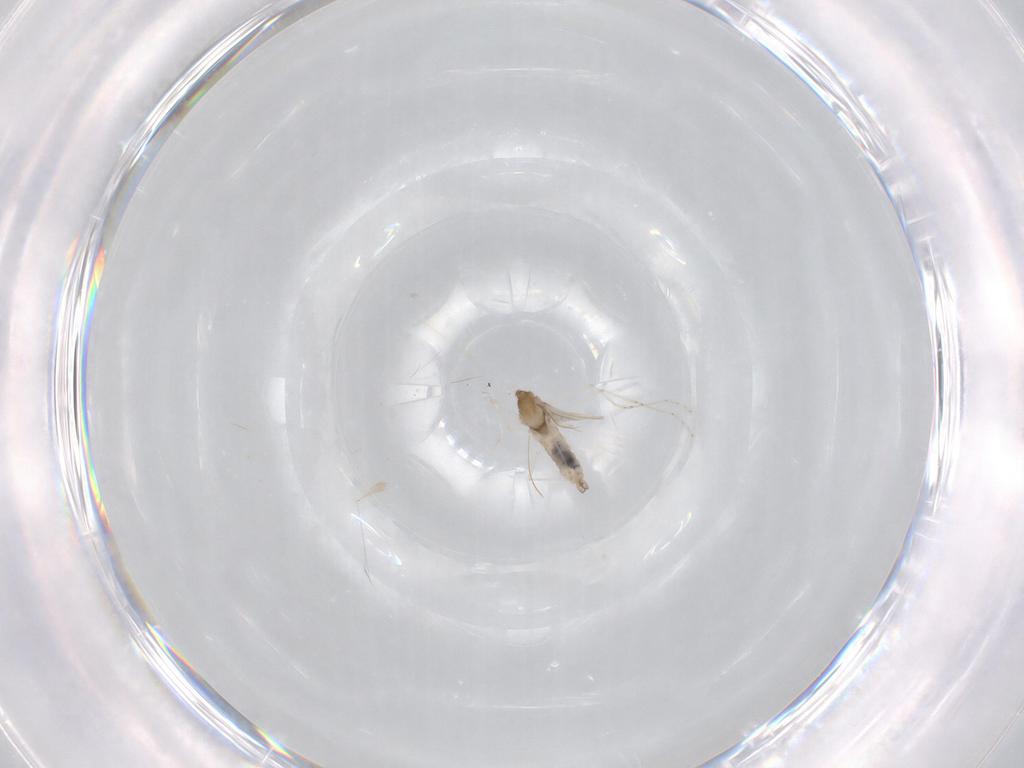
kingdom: Animalia
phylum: Arthropoda
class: Insecta
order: Diptera
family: Cecidomyiidae
